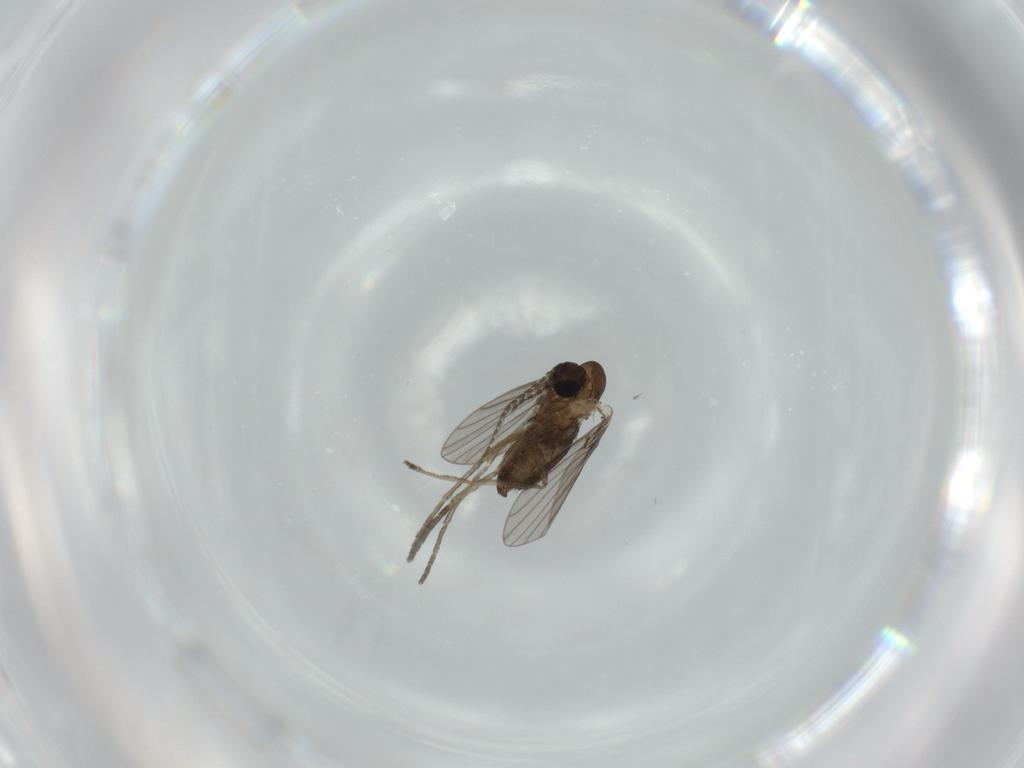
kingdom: Animalia
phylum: Arthropoda
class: Insecta
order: Diptera
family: Psychodidae
